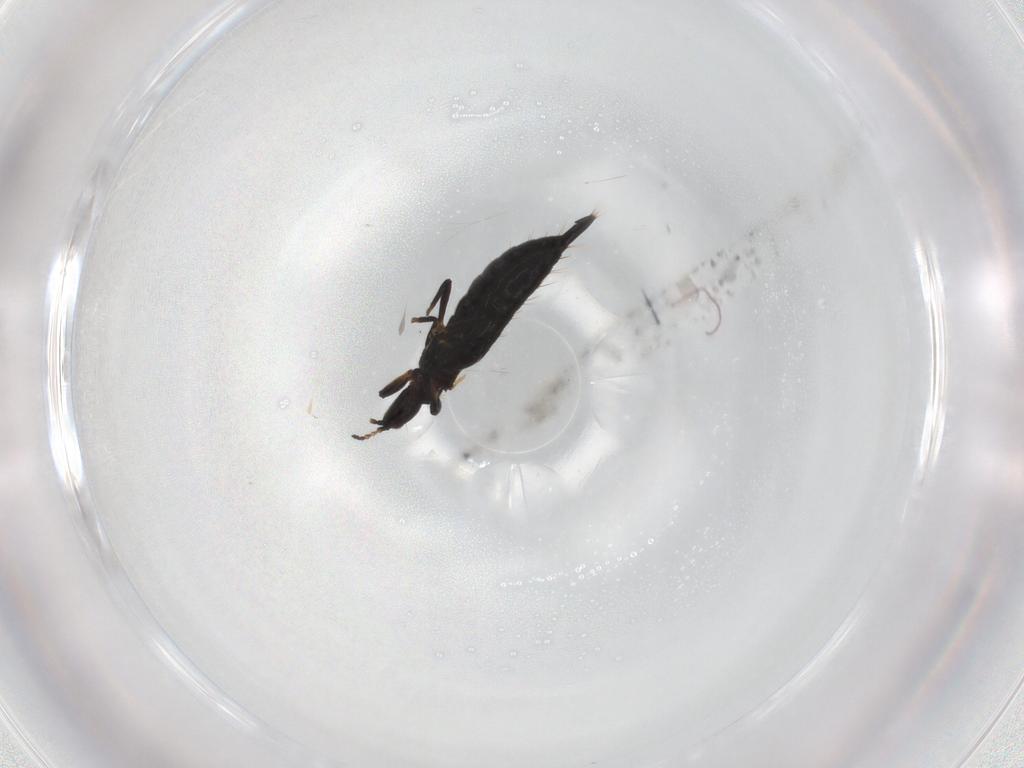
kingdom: Animalia
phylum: Arthropoda
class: Insecta
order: Thysanoptera
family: Phlaeothripidae
